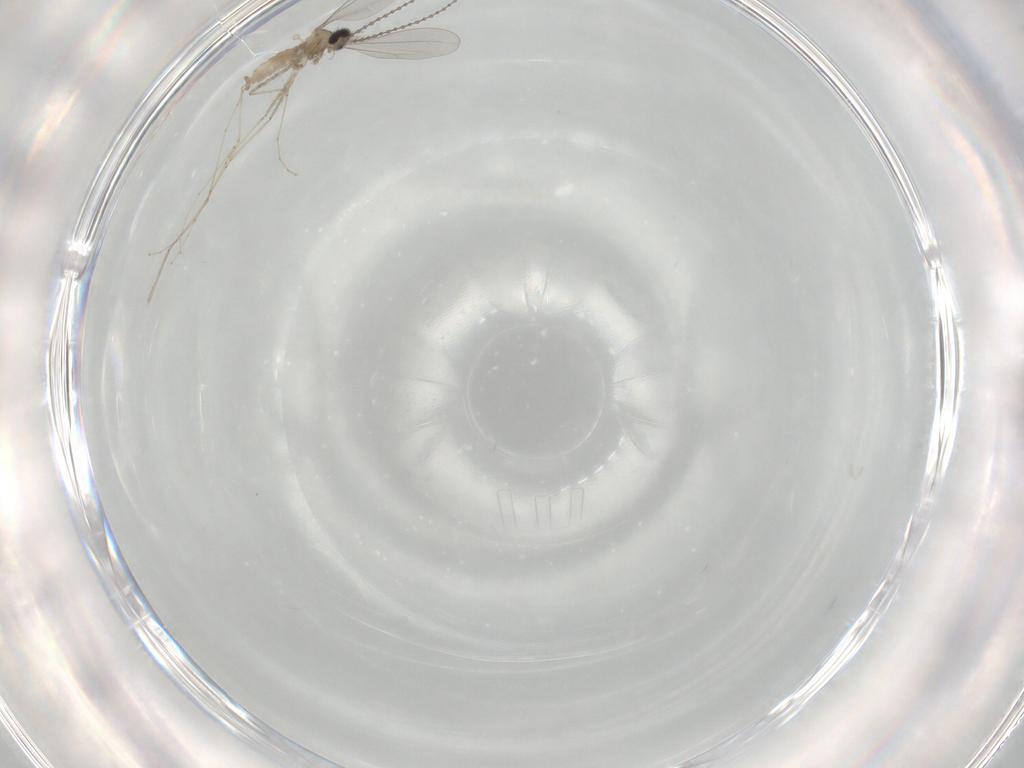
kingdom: Animalia
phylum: Arthropoda
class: Insecta
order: Diptera
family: Cecidomyiidae
